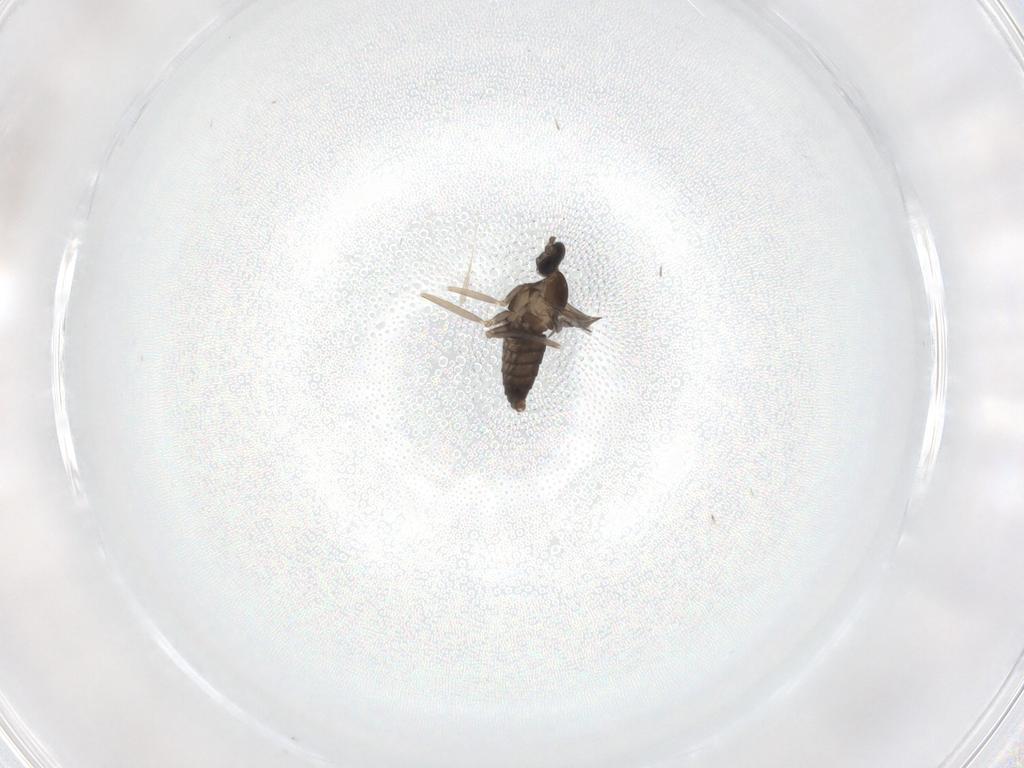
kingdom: Animalia
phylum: Arthropoda
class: Insecta
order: Diptera
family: Cecidomyiidae
